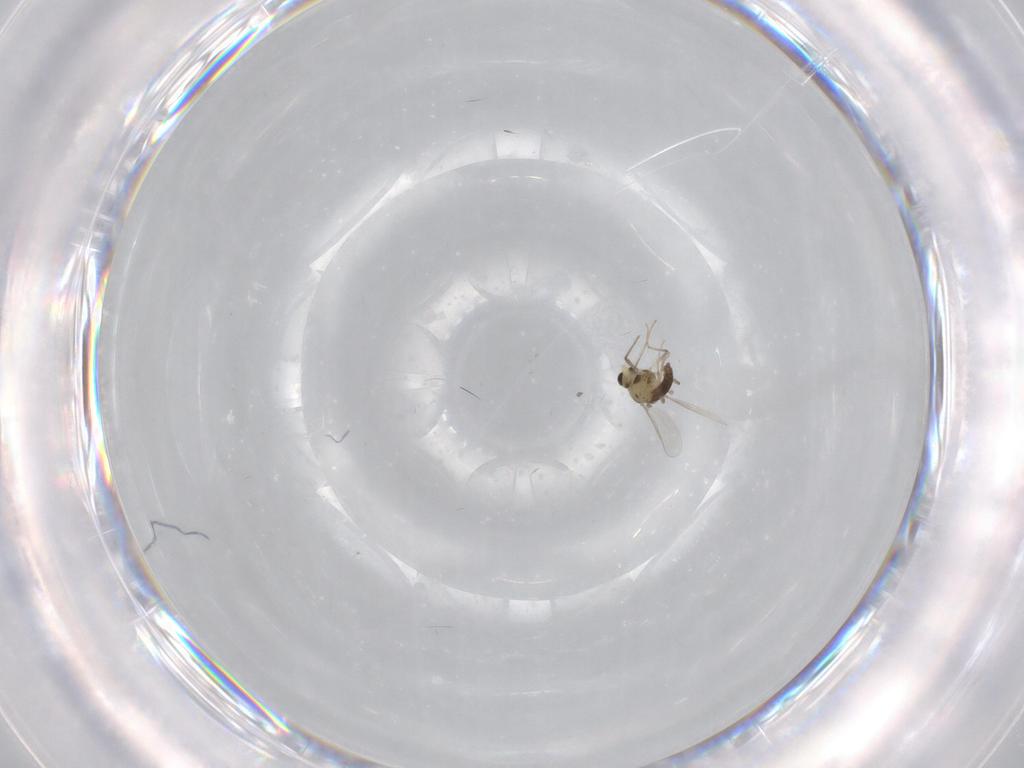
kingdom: Animalia
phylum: Arthropoda
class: Insecta
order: Diptera
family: Chironomidae
